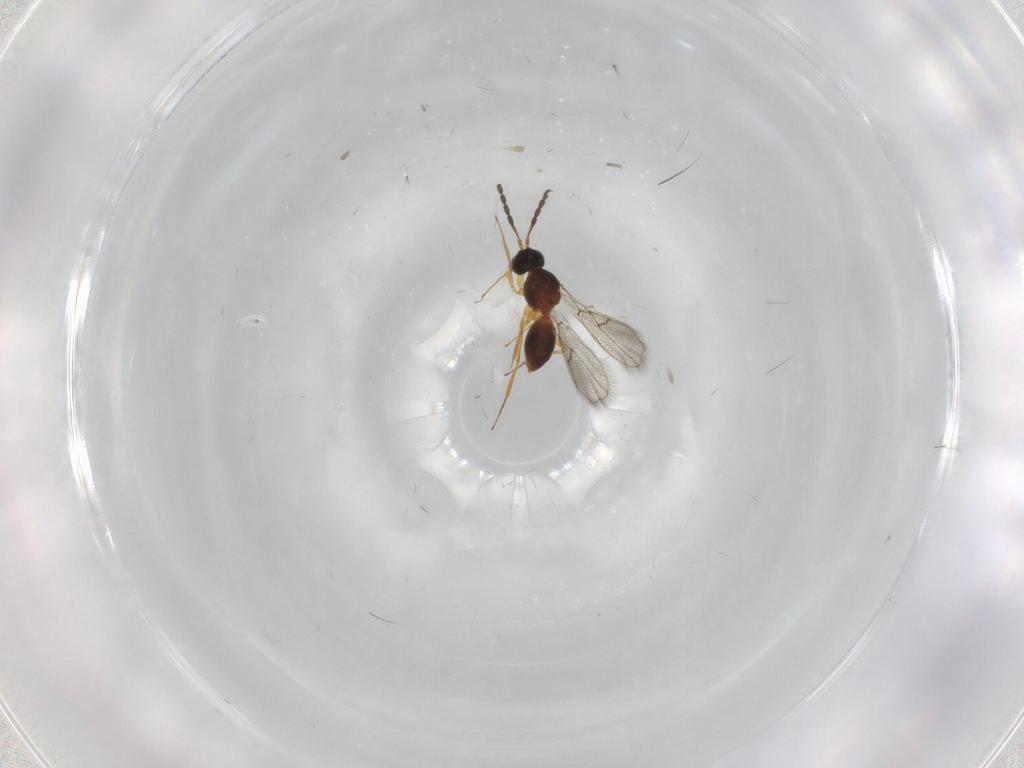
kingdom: Animalia
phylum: Arthropoda
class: Insecta
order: Hymenoptera
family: Figitidae
